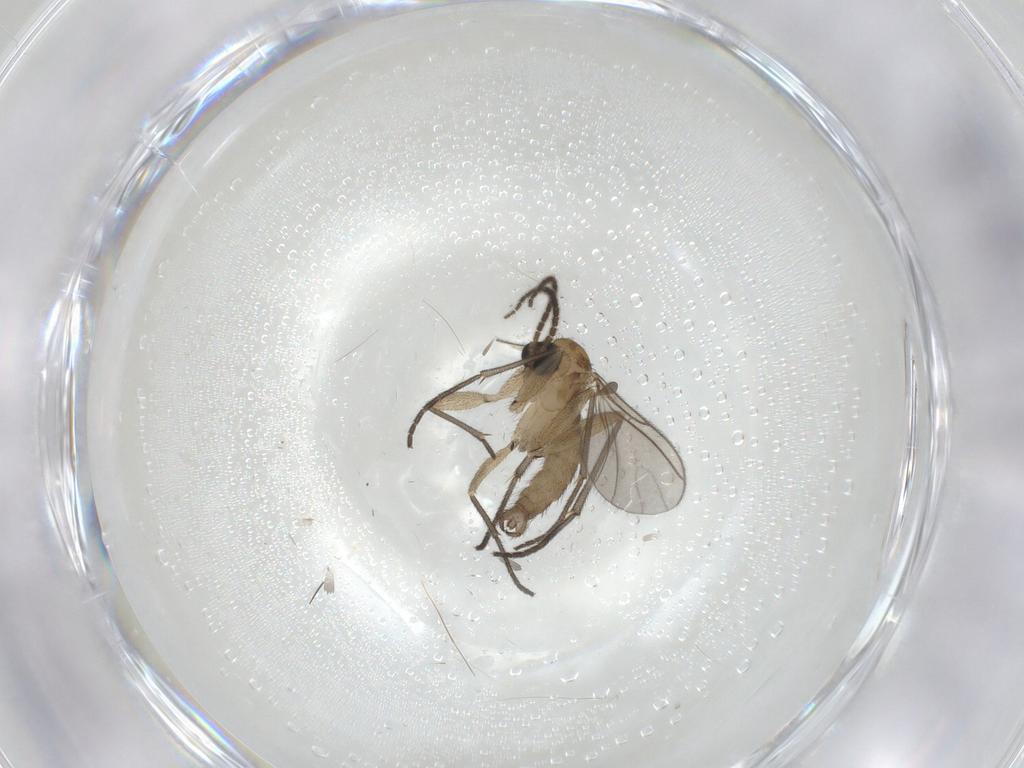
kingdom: Animalia
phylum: Arthropoda
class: Insecta
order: Diptera
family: Sciaridae
